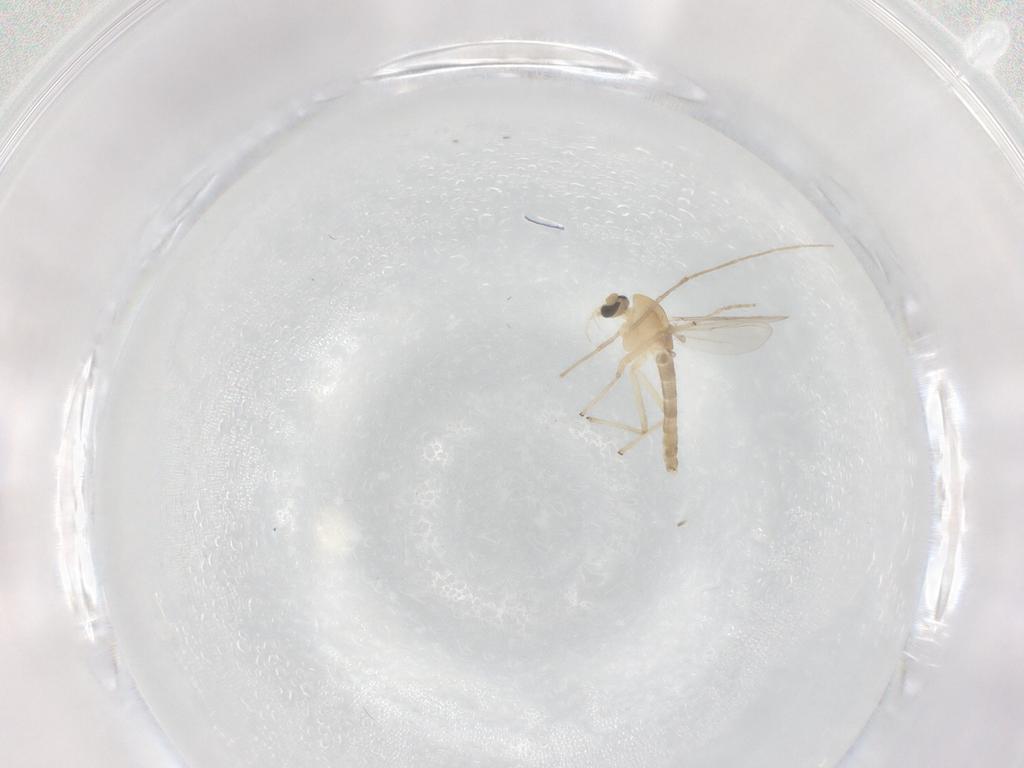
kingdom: Animalia
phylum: Arthropoda
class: Insecta
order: Diptera
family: Chironomidae
